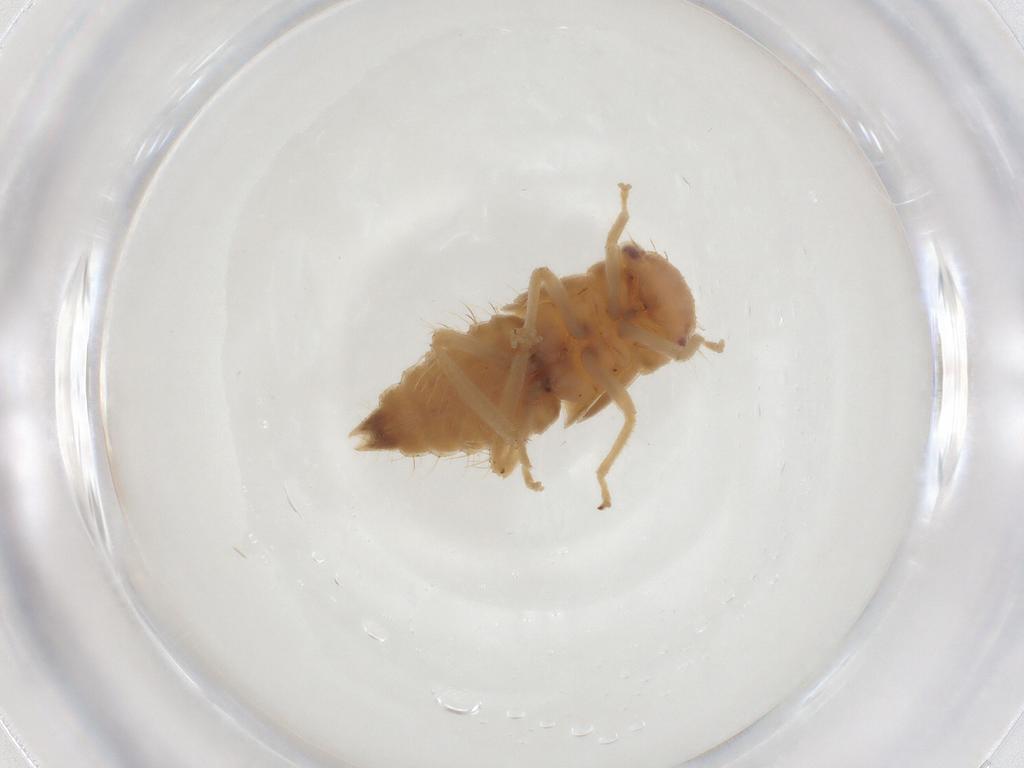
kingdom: Animalia
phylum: Arthropoda
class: Insecta
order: Hemiptera
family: Cicadellidae
